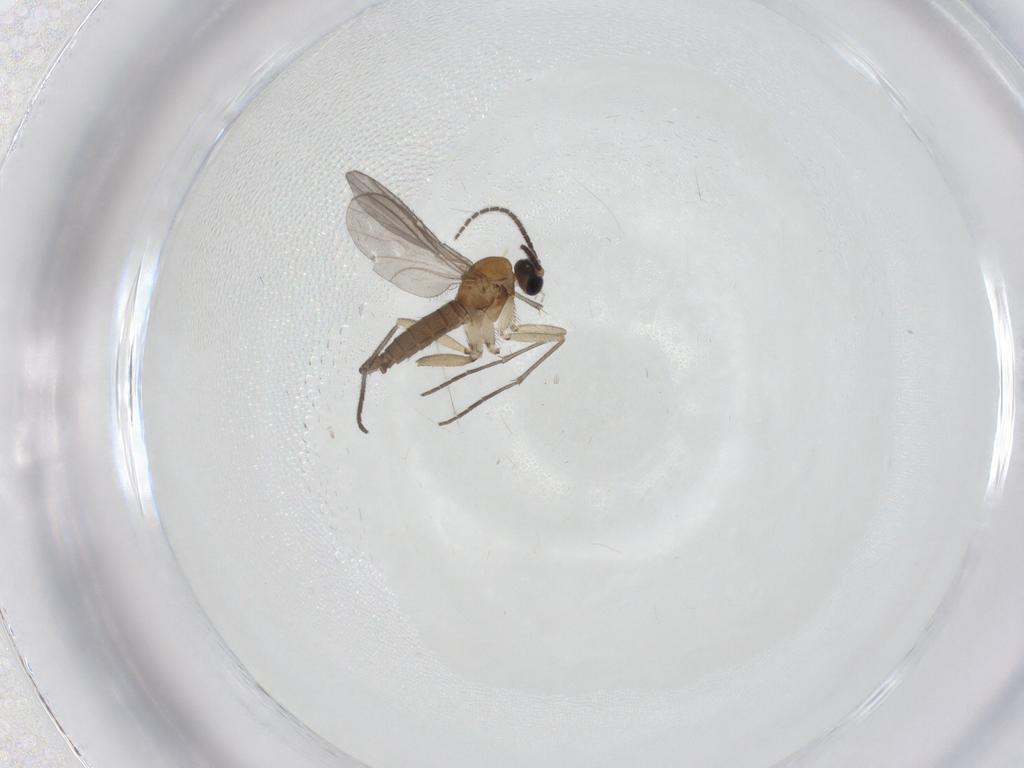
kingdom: Animalia
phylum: Arthropoda
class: Insecta
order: Diptera
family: Sciaridae
